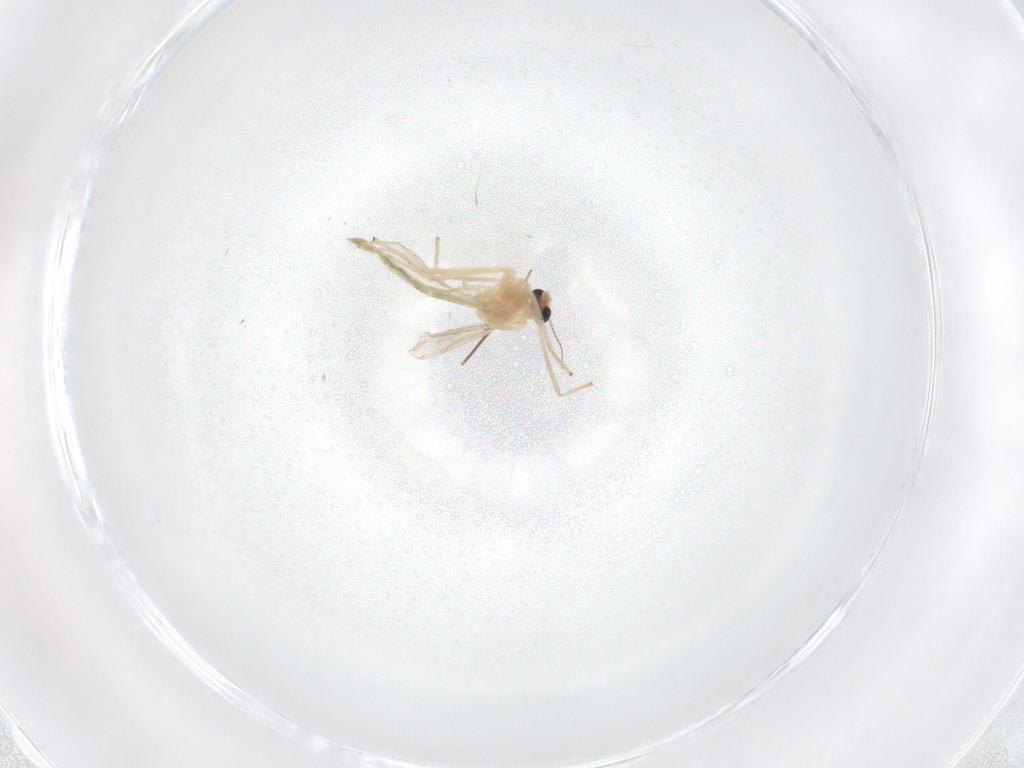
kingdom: Animalia
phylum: Arthropoda
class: Insecta
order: Diptera
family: Chironomidae
